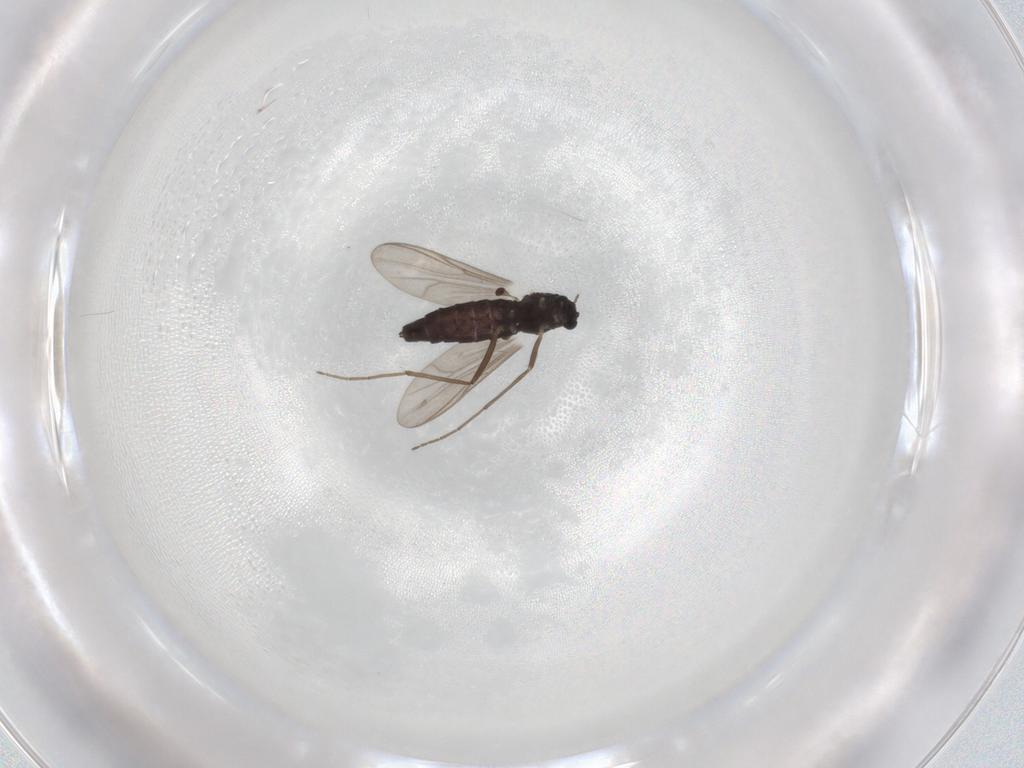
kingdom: Animalia
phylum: Arthropoda
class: Insecta
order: Diptera
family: Chironomidae
